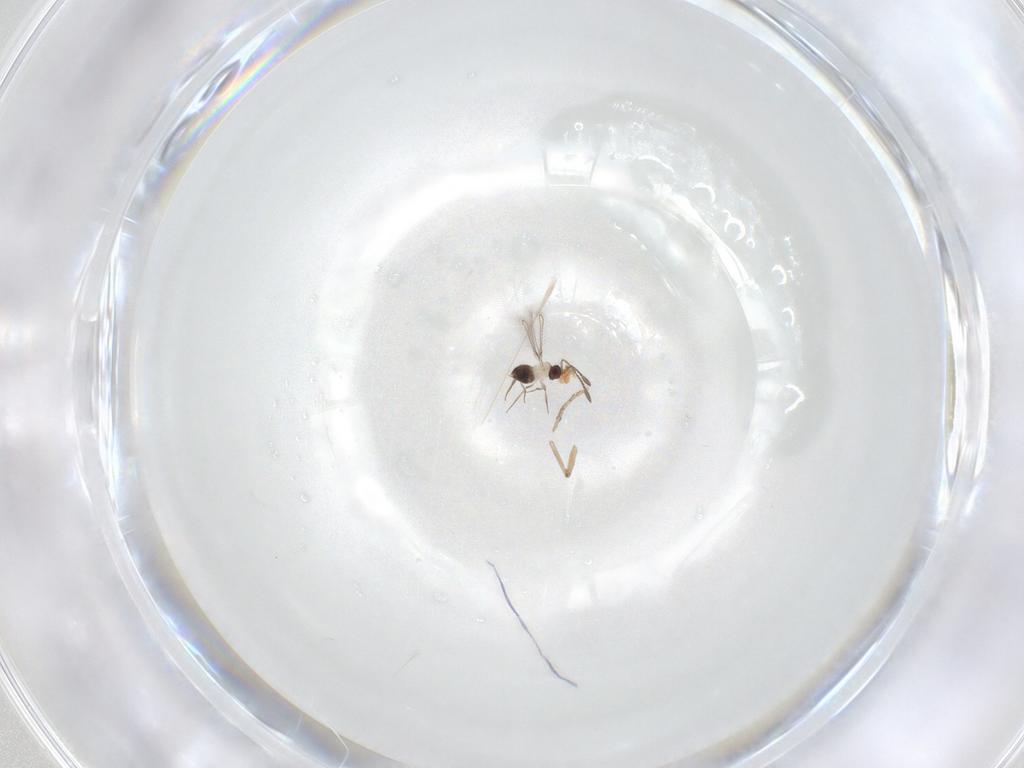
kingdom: Animalia
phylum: Arthropoda
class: Insecta
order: Hymenoptera
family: Mymaridae
